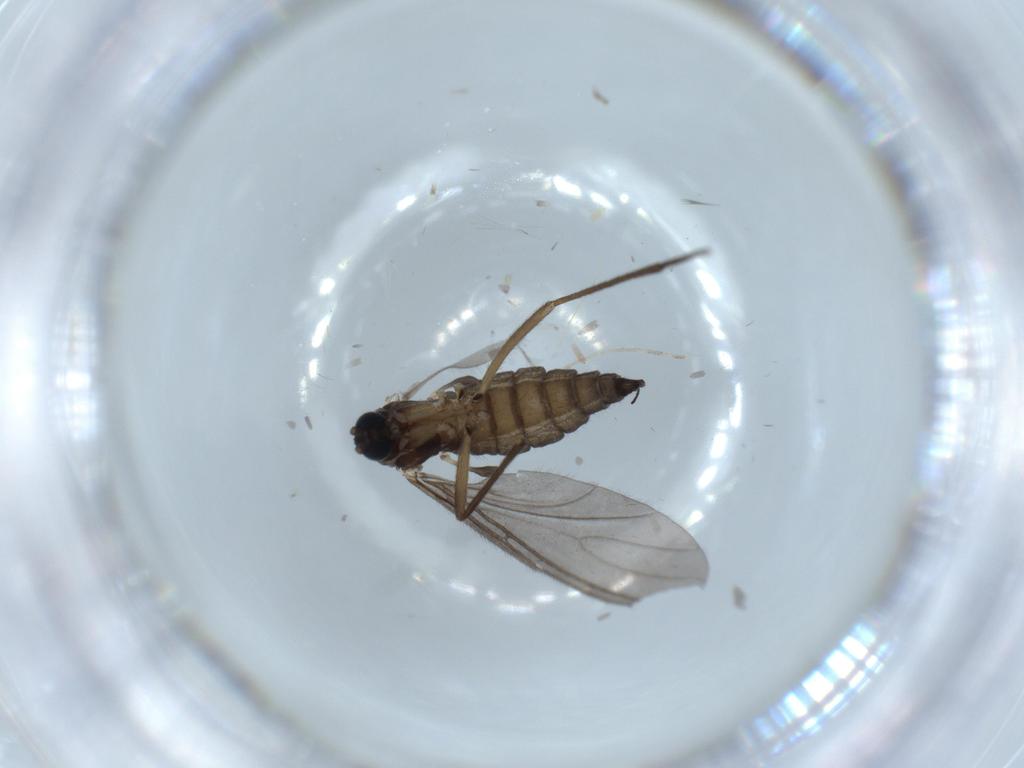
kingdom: Animalia
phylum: Arthropoda
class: Insecta
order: Diptera
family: Sciaridae
